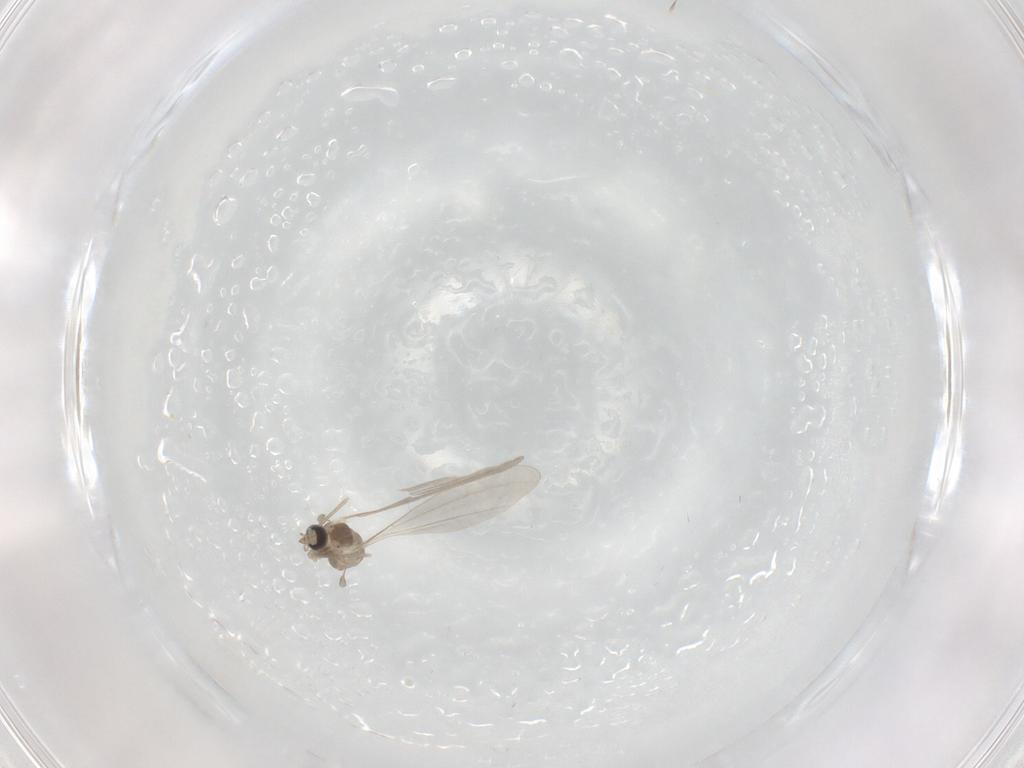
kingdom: Animalia
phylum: Arthropoda
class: Insecta
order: Diptera
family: Cecidomyiidae
